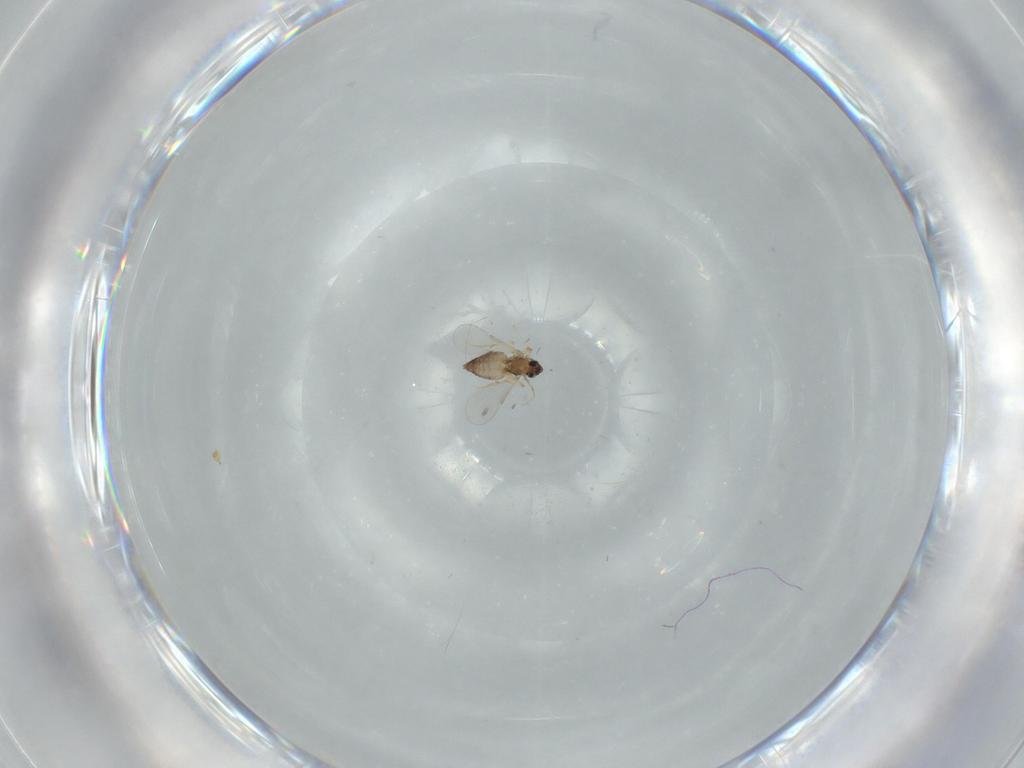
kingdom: Animalia
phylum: Arthropoda
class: Insecta
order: Diptera
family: Chironomidae
